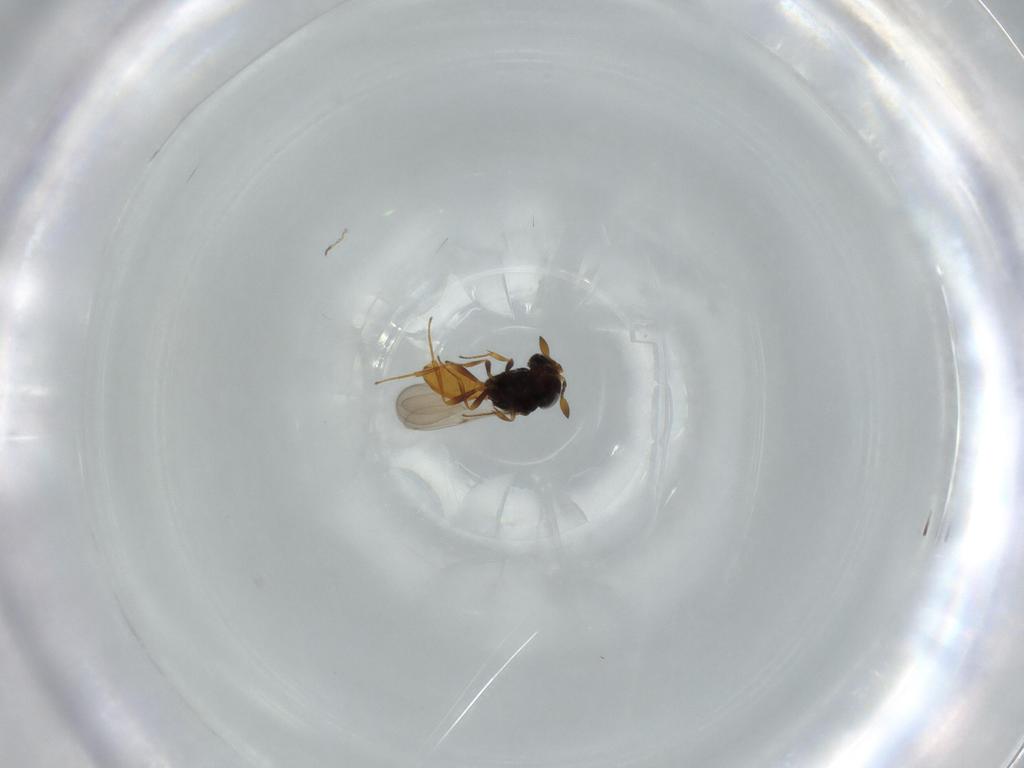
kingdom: Animalia
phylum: Arthropoda
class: Insecta
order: Hymenoptera
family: Scelionidae
